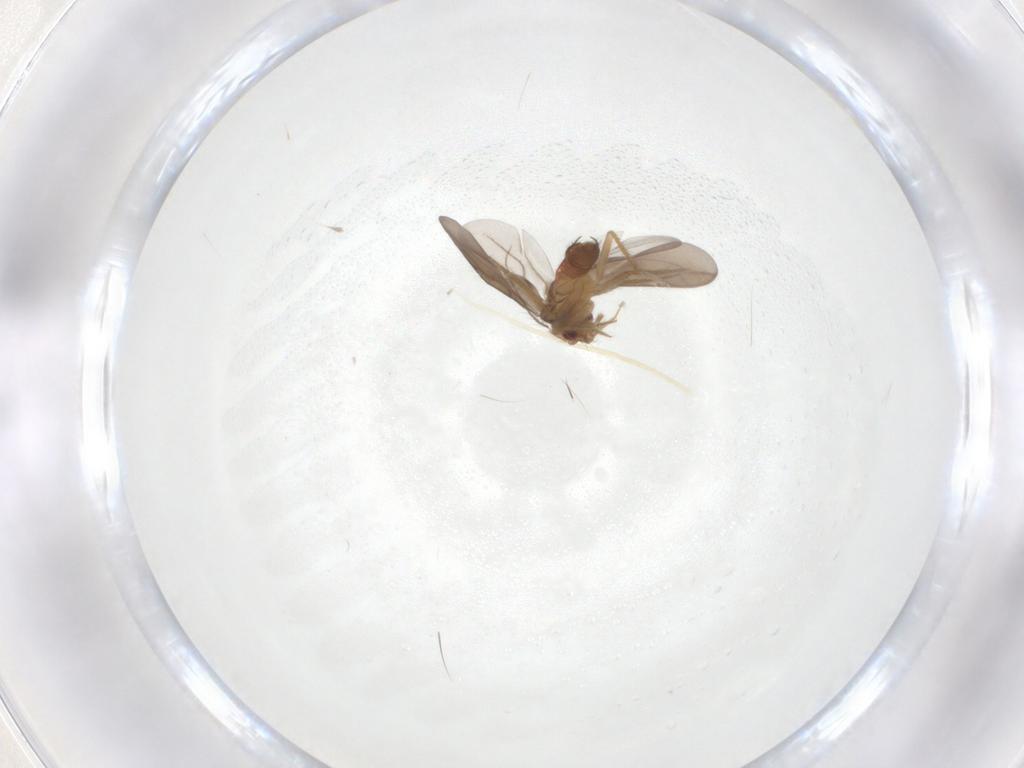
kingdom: Animalia
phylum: Arthropoda
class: Insecta
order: Hemiptera
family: Ceratocombidae
